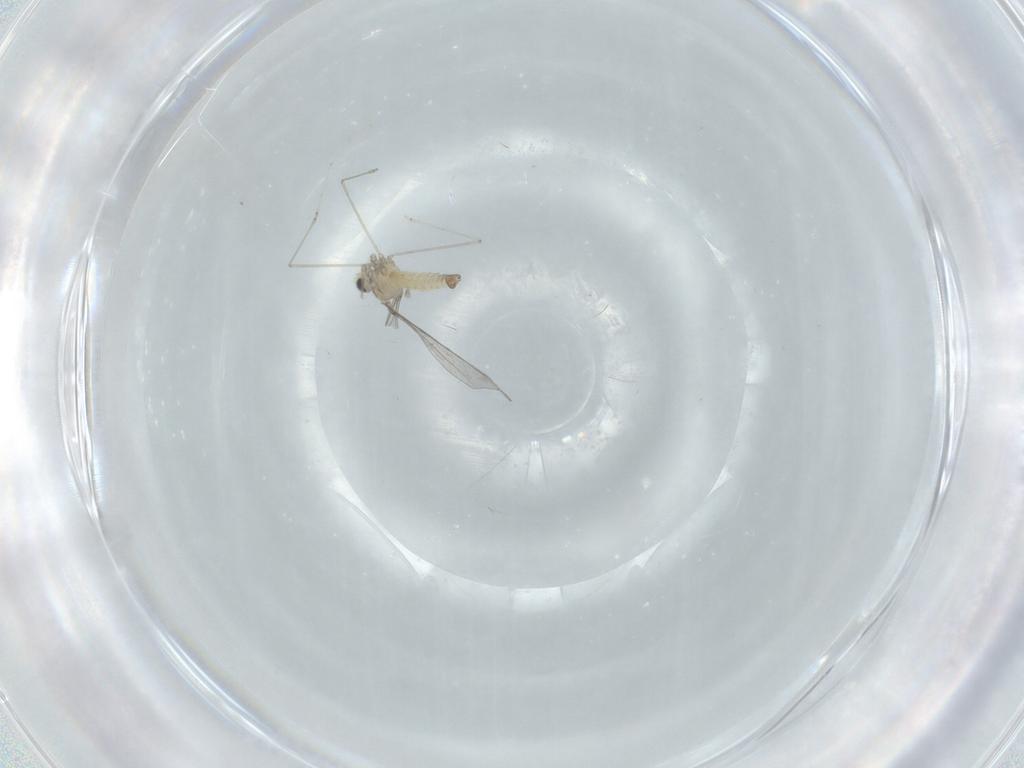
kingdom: Animalia
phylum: Arthropoda
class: Insecta
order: Diptera
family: Cecidomyiidae
